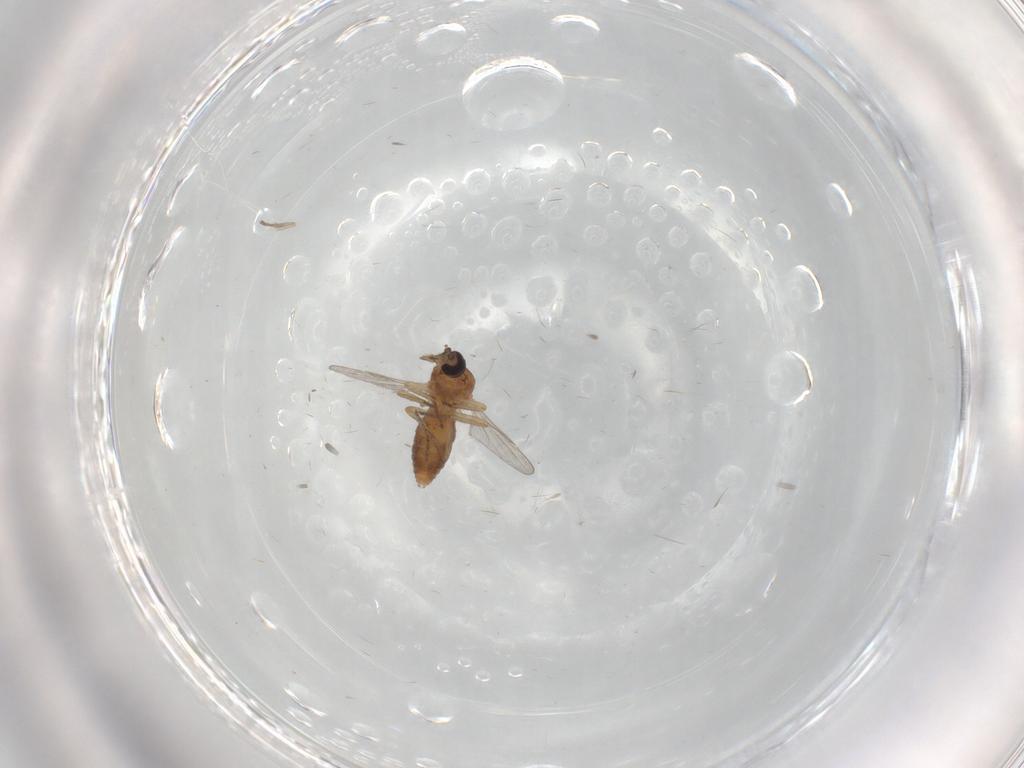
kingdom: Animalia
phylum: Arthropoda
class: Insecta
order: Diptera
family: Ceratopogonidae
